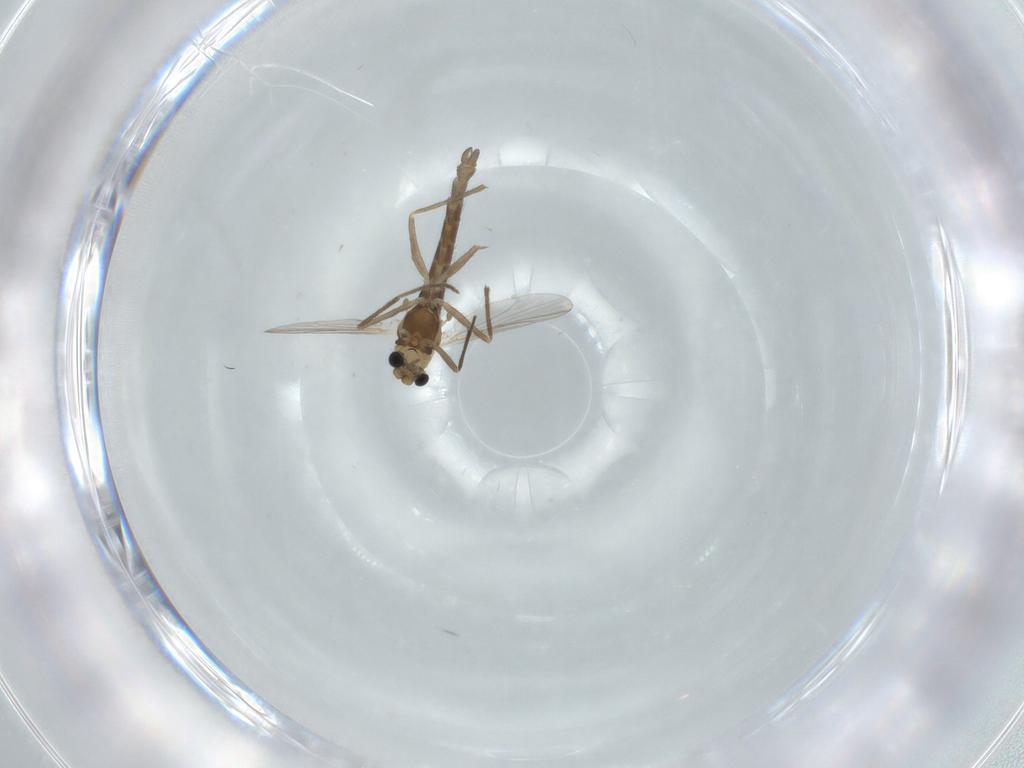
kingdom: Animalia
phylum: Arthropoda
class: Insecta
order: Diptera
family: Chironomidae
